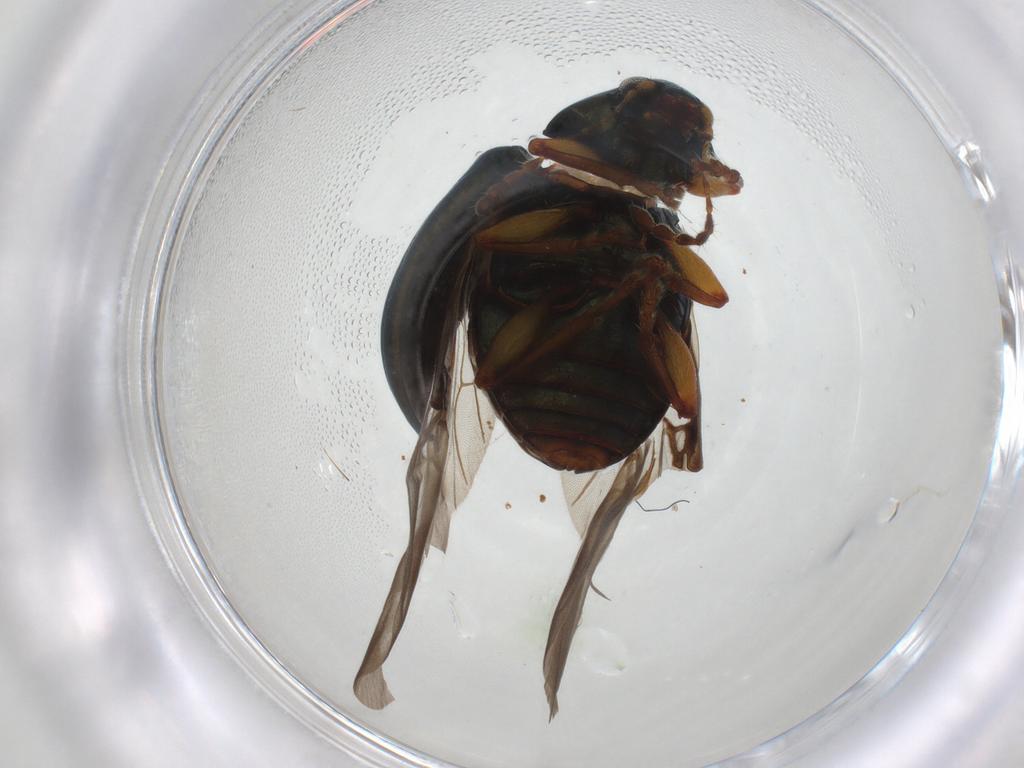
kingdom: Animalia
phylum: Arthropoda
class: Insecta
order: Coleoptera
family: Chrysomelidae
